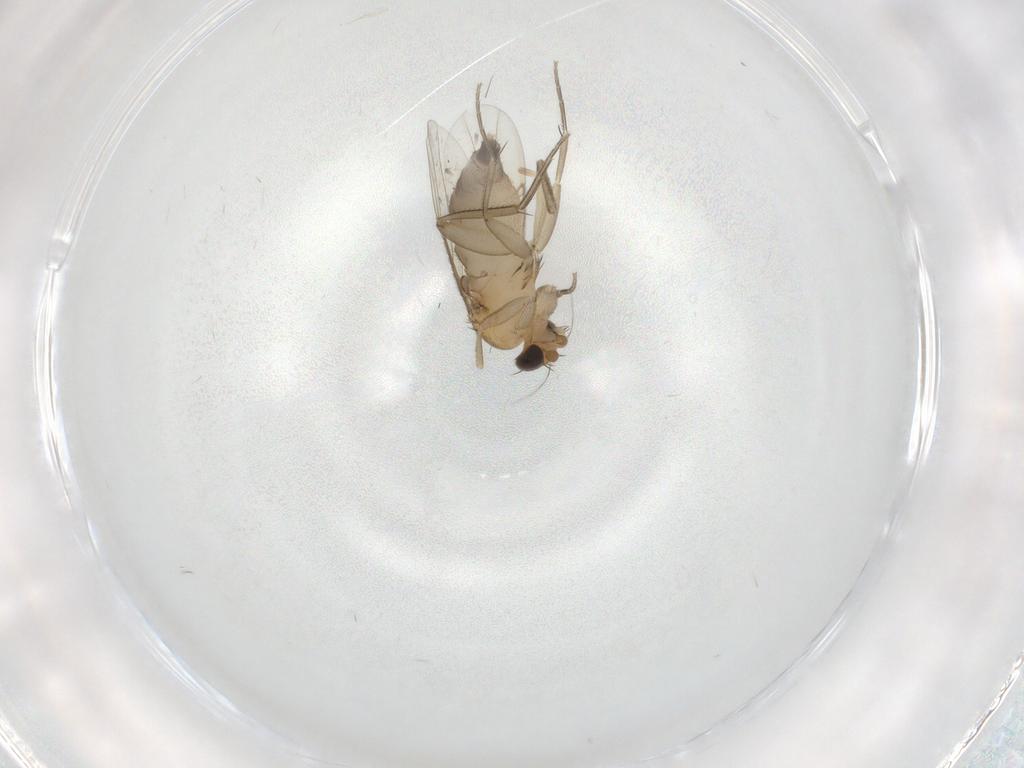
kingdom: Animalia
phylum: Arthropoda
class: Insecta
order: Diptera
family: Phoridae
